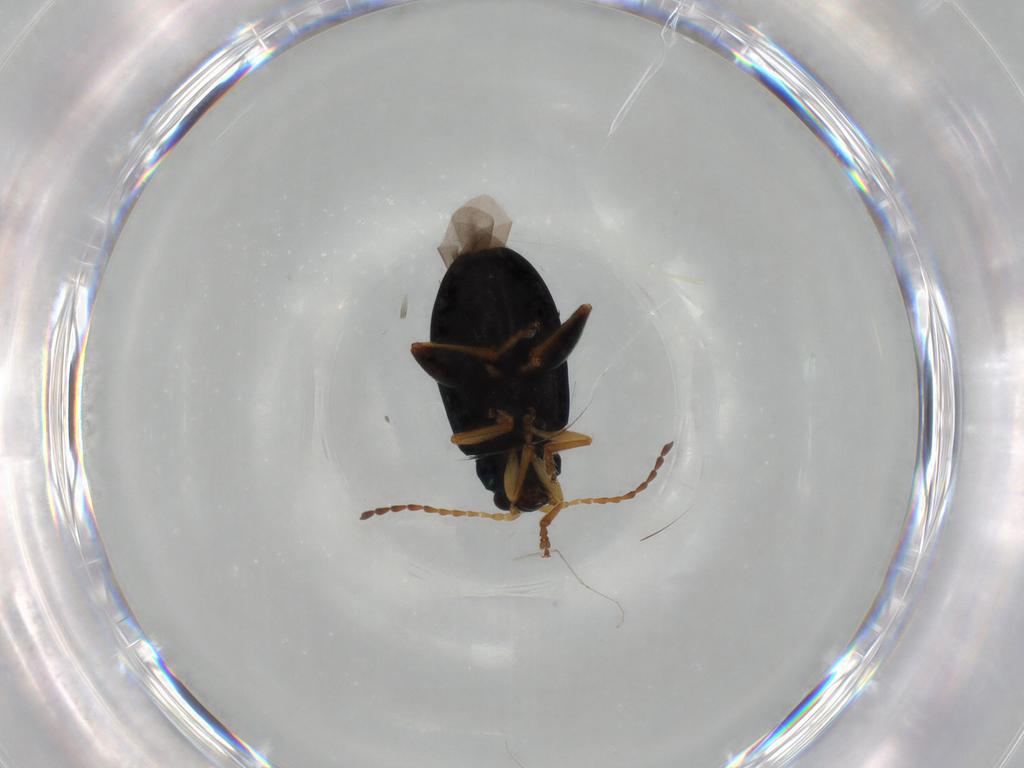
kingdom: Animalia
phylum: Arthropoda
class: Insecta
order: Coleoptera
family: Chrysomelidae
